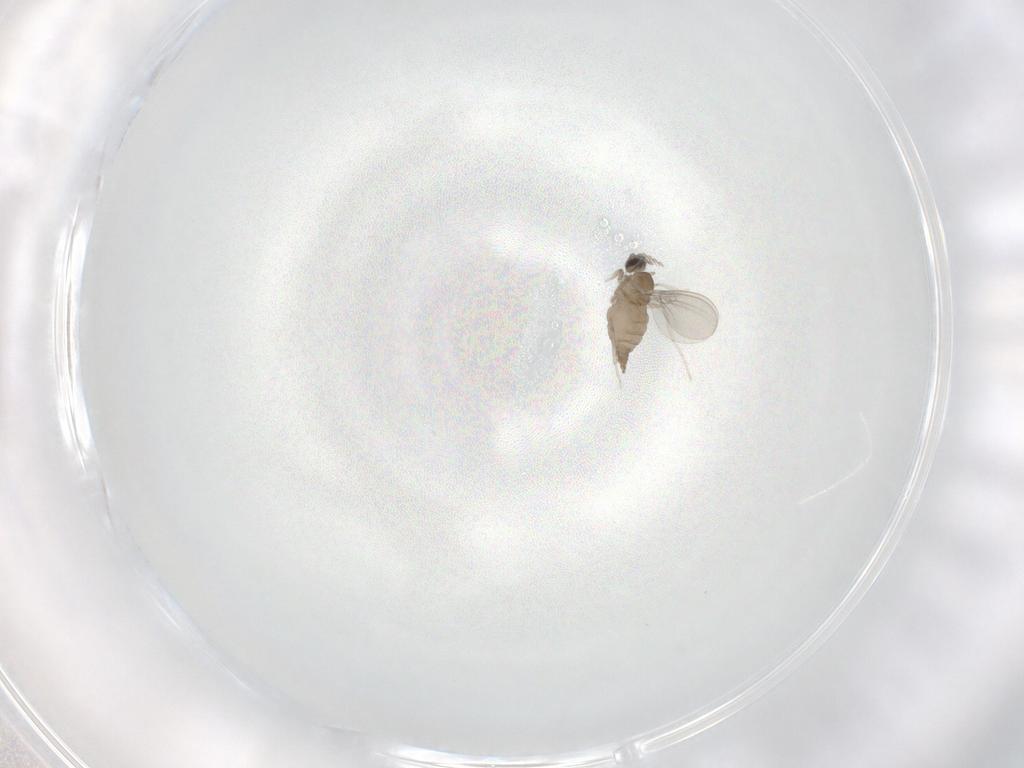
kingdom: Animalia
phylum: Arthropoda
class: Insecta
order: Diptera
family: Cecidomyiidae
